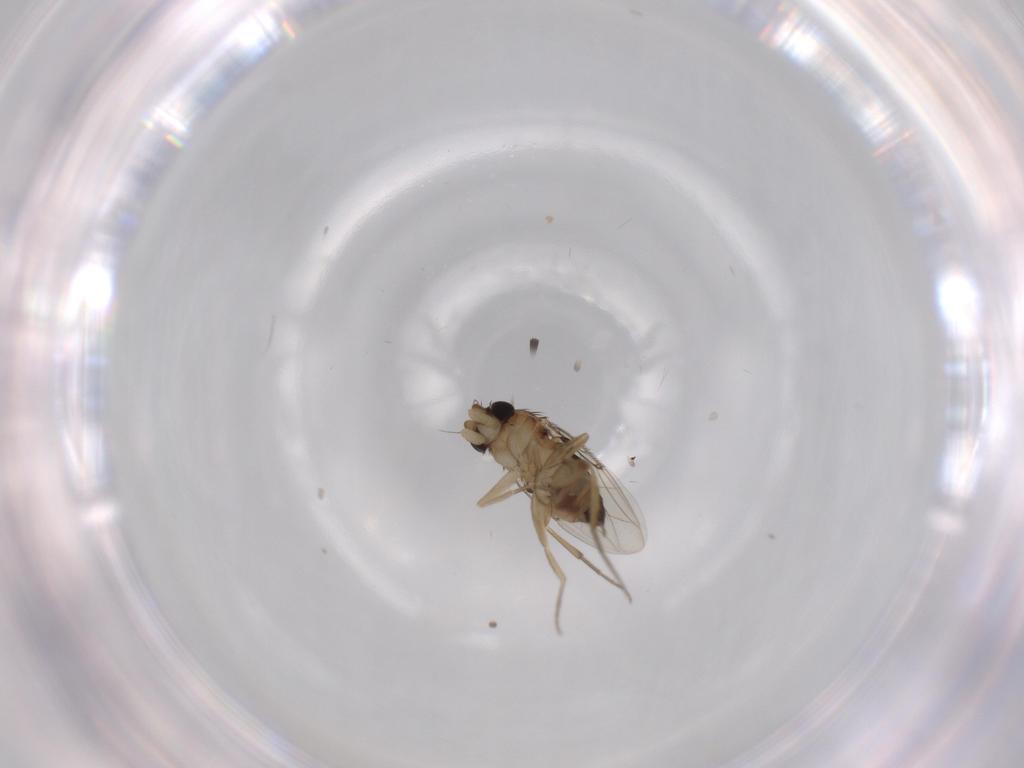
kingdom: Animalia
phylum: Arthropoda
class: Insecta
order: Diptera
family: Phoridae
